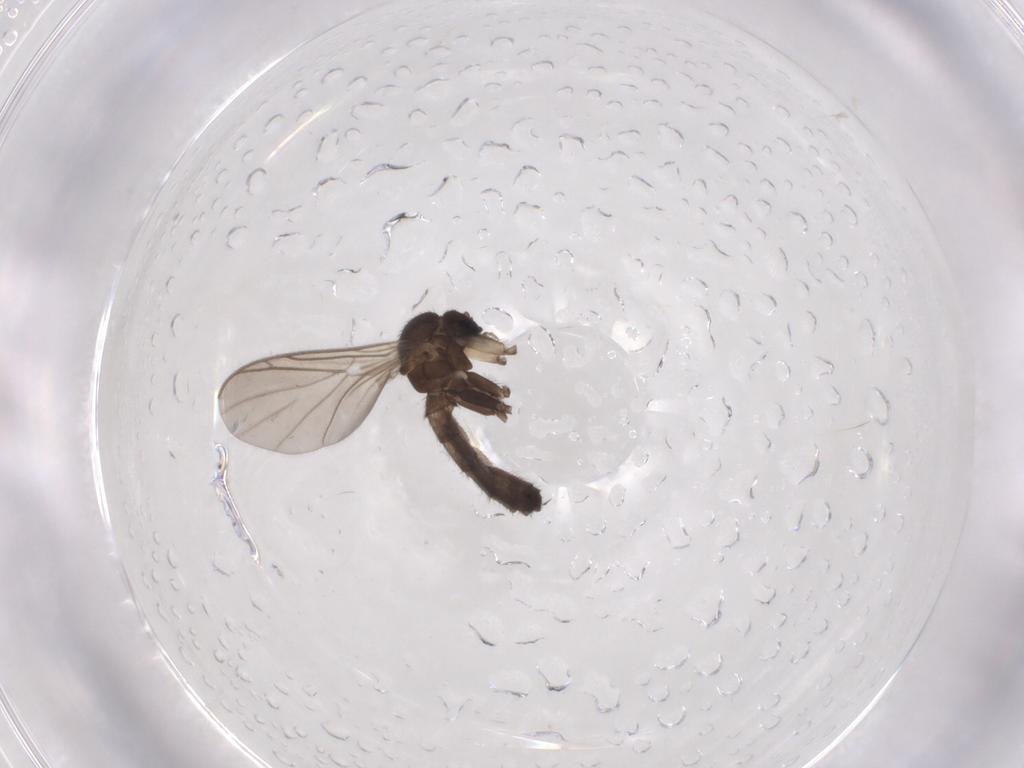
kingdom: Animalia
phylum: Arthropoda
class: Insecta
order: Diptera
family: Keroplatidae
